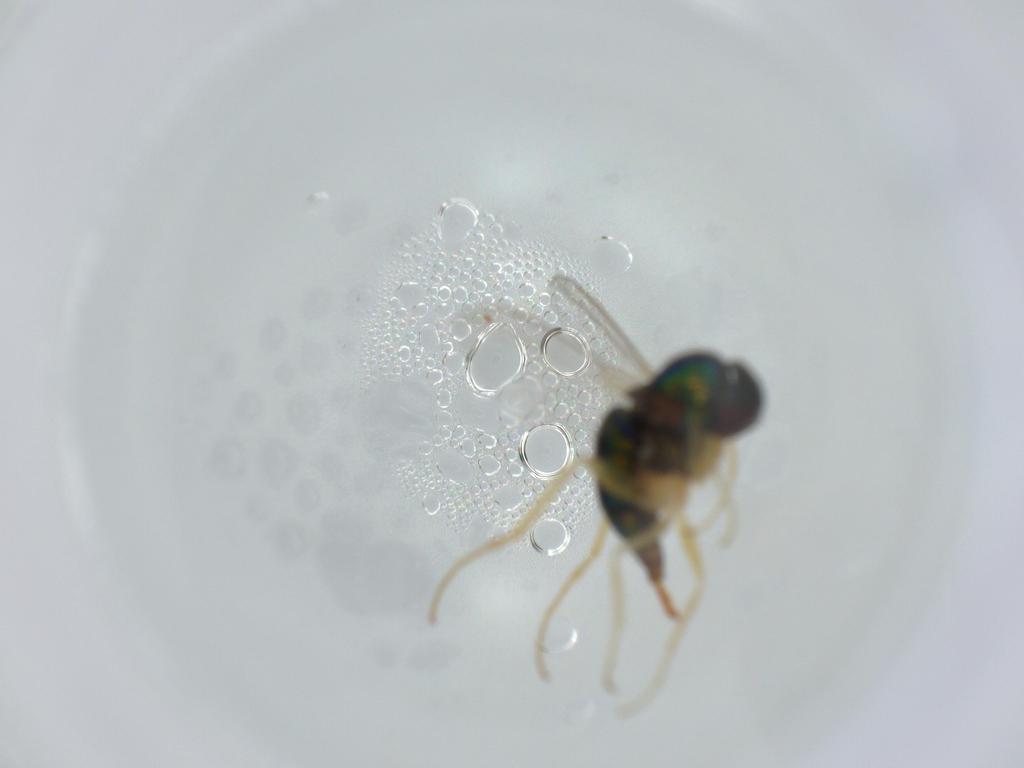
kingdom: Animalia
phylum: Arthropoda
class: Insecta
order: Diptera
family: Dolichopodidae
